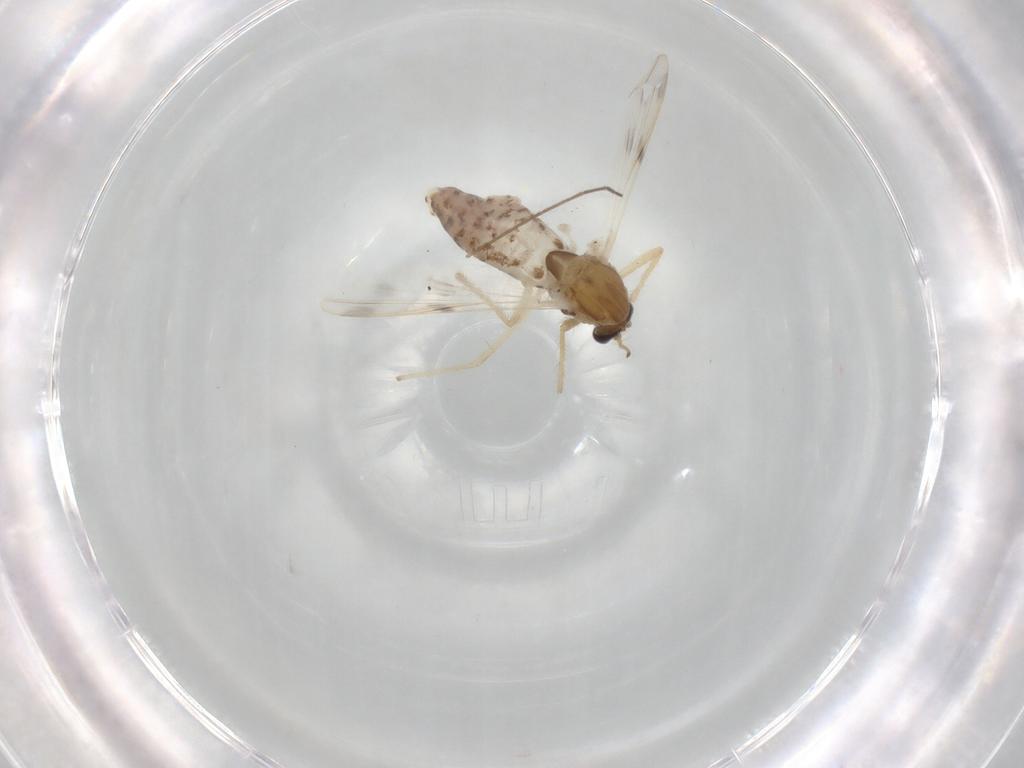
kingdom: Animalia
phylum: Arthropoda
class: Insecta
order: Diptera
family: Chironomidae
